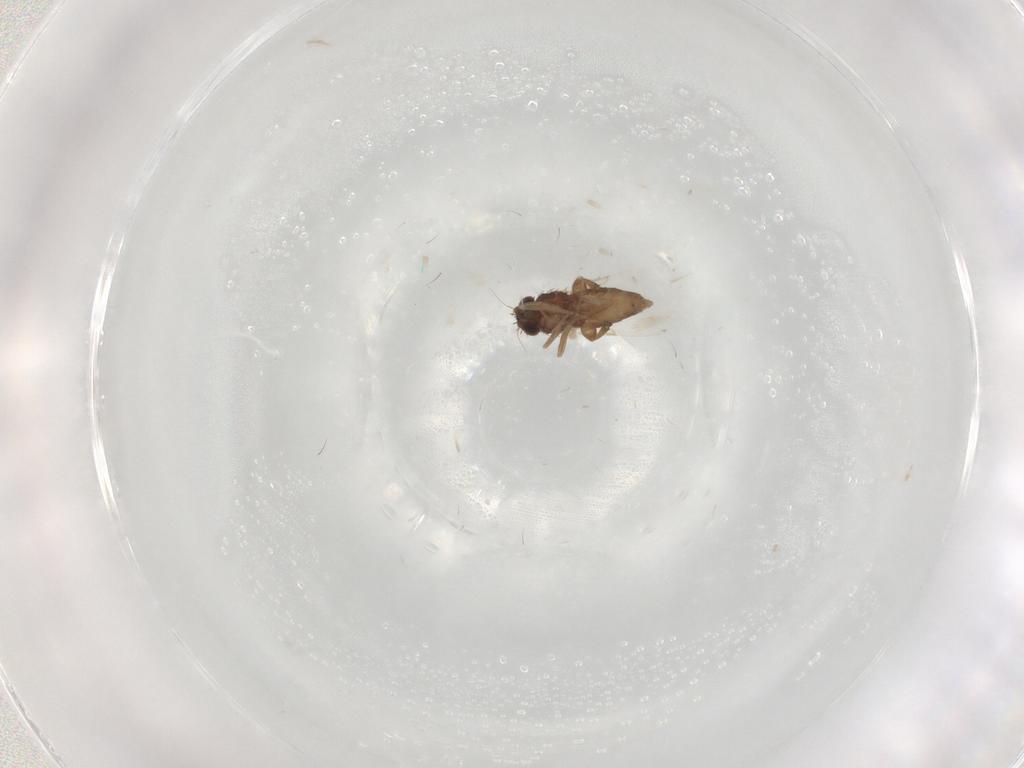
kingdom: Animalia
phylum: Arthropoda
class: Insecta
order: Diptera
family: Phoridae
